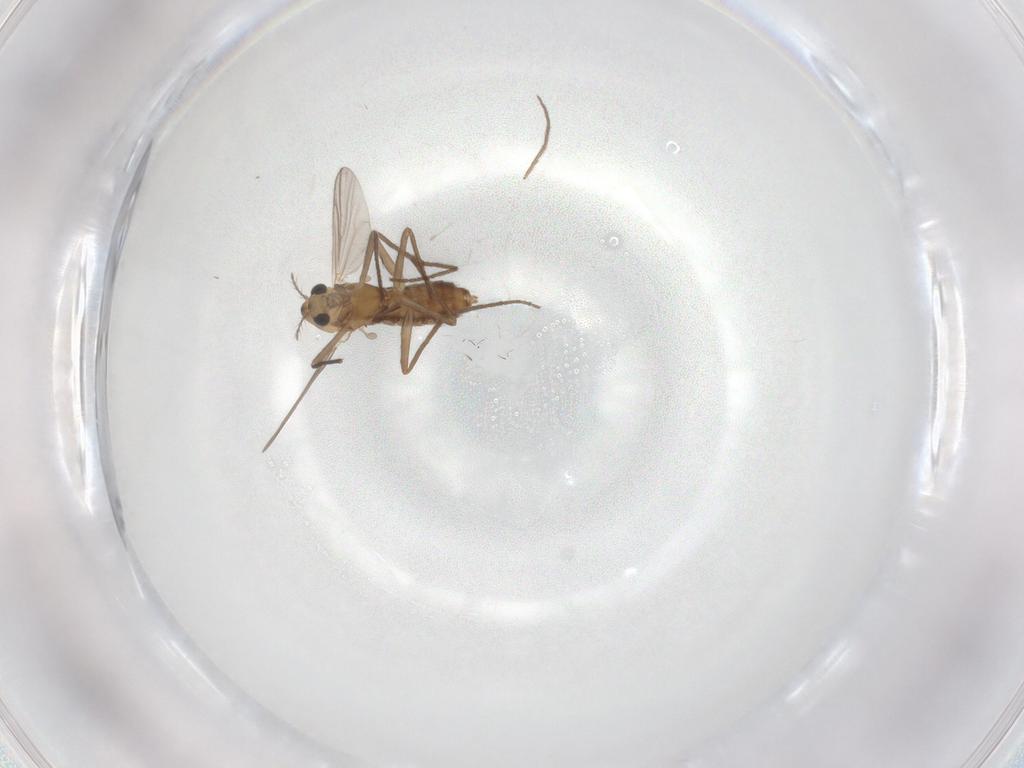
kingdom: Animalia
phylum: Arthropoda
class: Insecta
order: Diptera
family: Chironomidae
